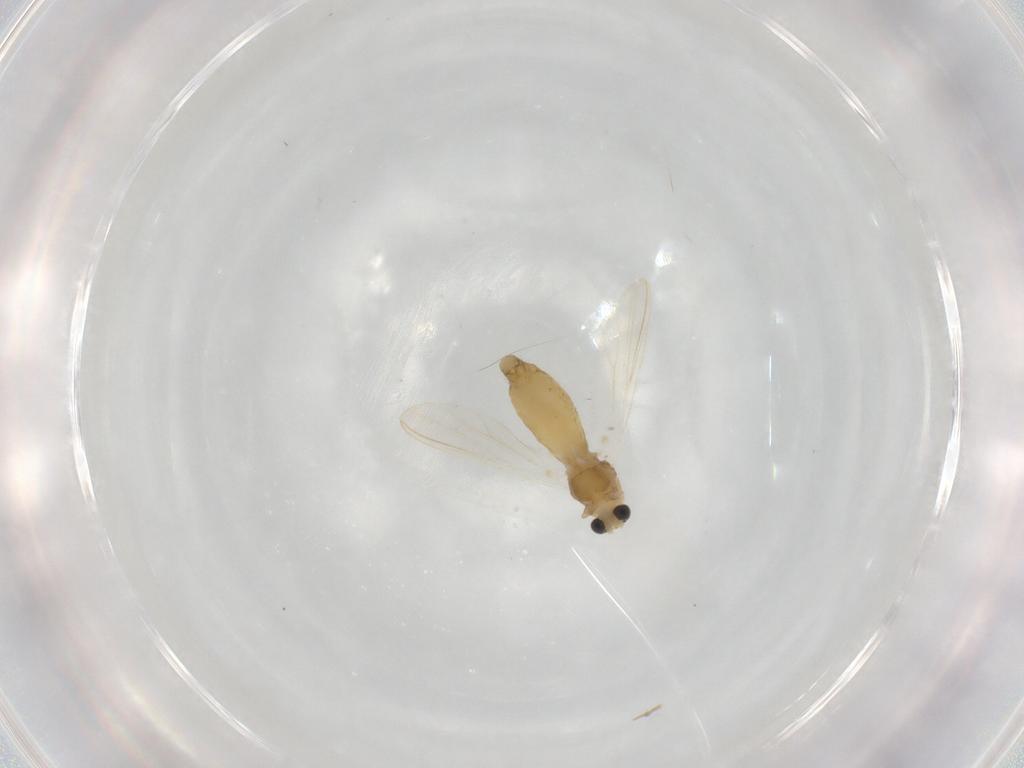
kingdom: Animalia
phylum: Arthropoda
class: Insecta
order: Diptera
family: Chironomidae
